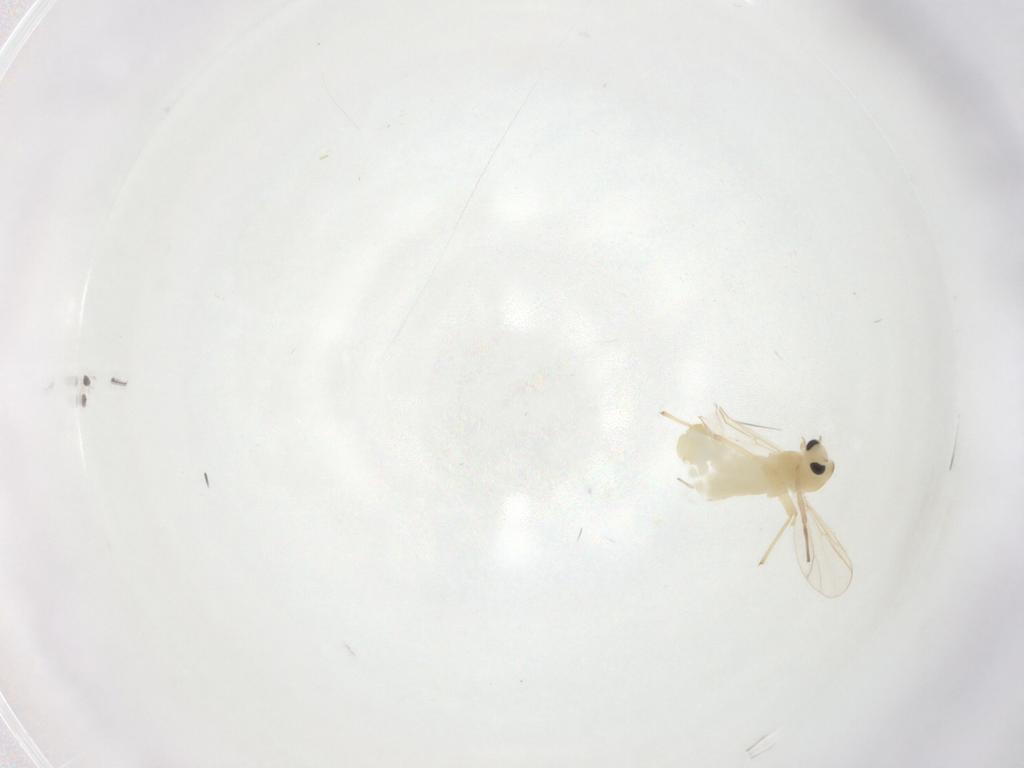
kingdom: Animalia
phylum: Arthropoda
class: Insecta
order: Diptera
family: Chironomidae
